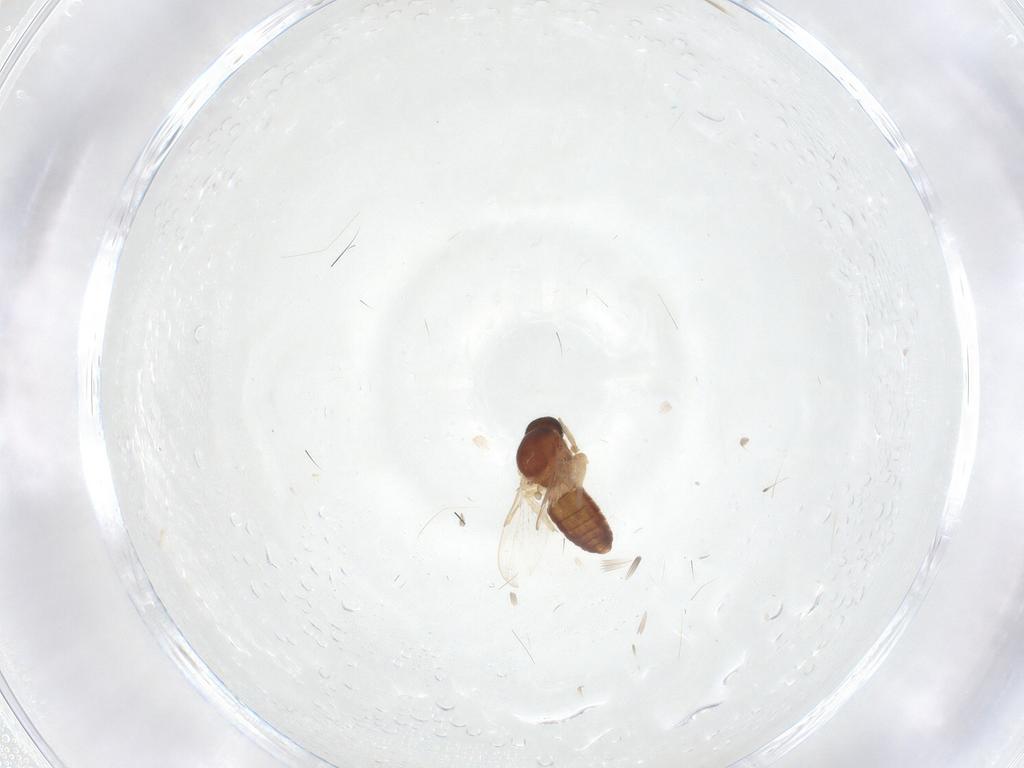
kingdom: Animalia
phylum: Arthropoda
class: Insecta
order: Diptera
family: Ceratopogonidae
